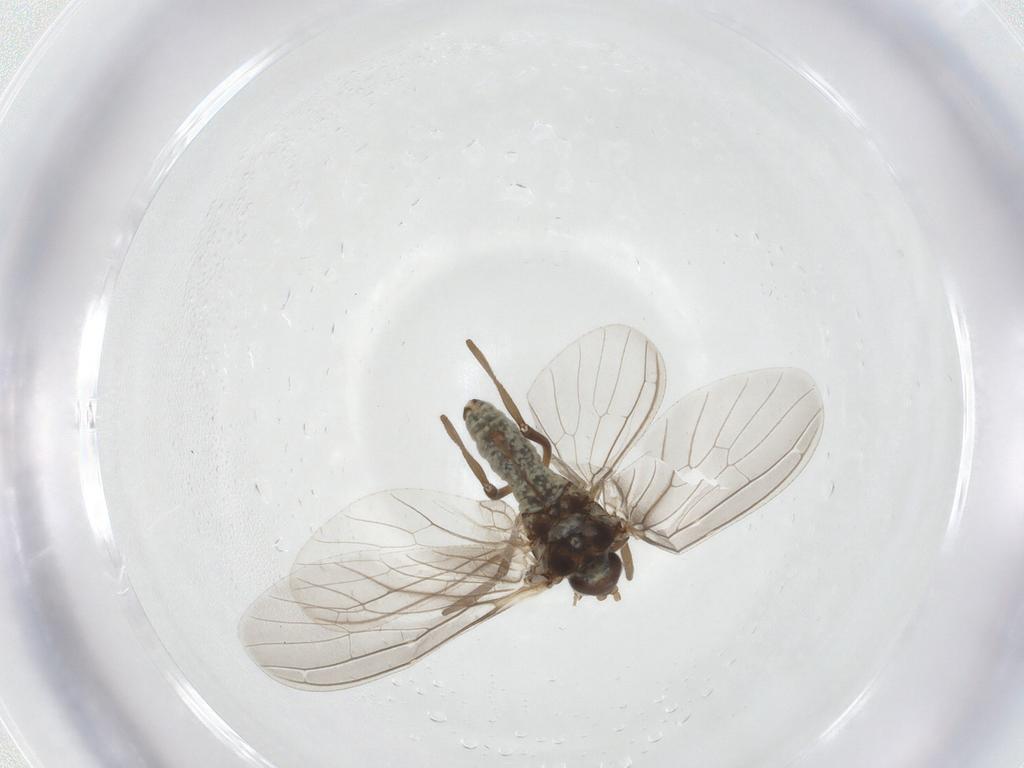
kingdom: Animalia
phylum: Arthropoda
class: Insecta
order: Neuroptera
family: Coniopterygidae
